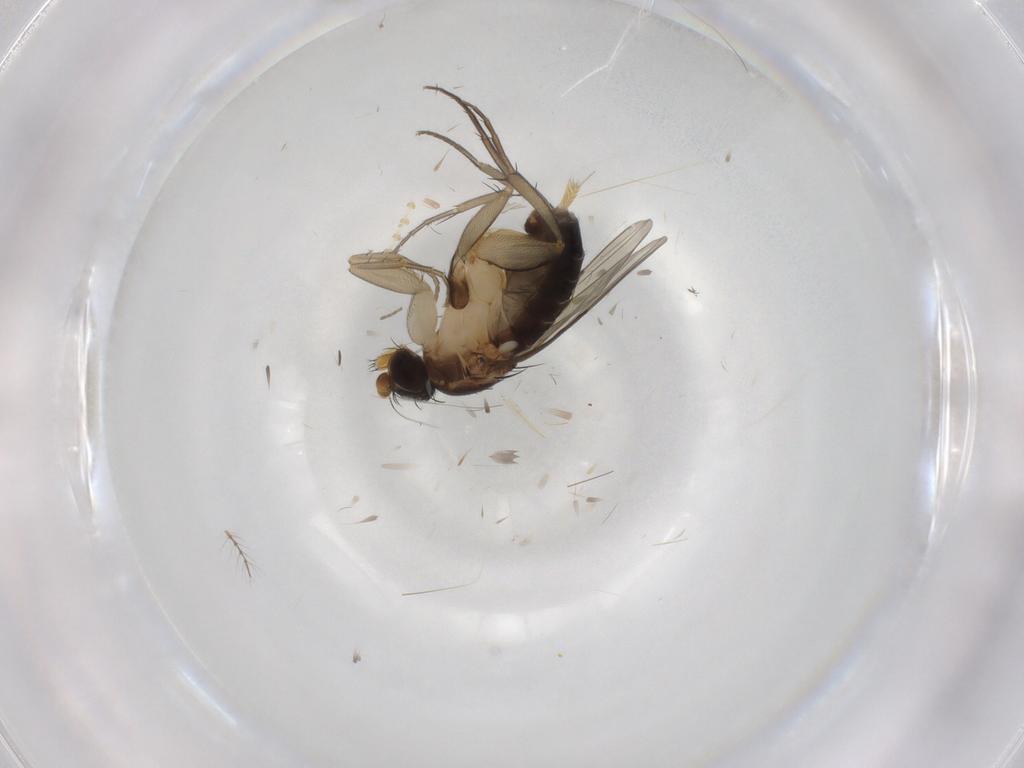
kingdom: Animalia
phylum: Arthropoda
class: Insecta
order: Diptera
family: Phoridae
